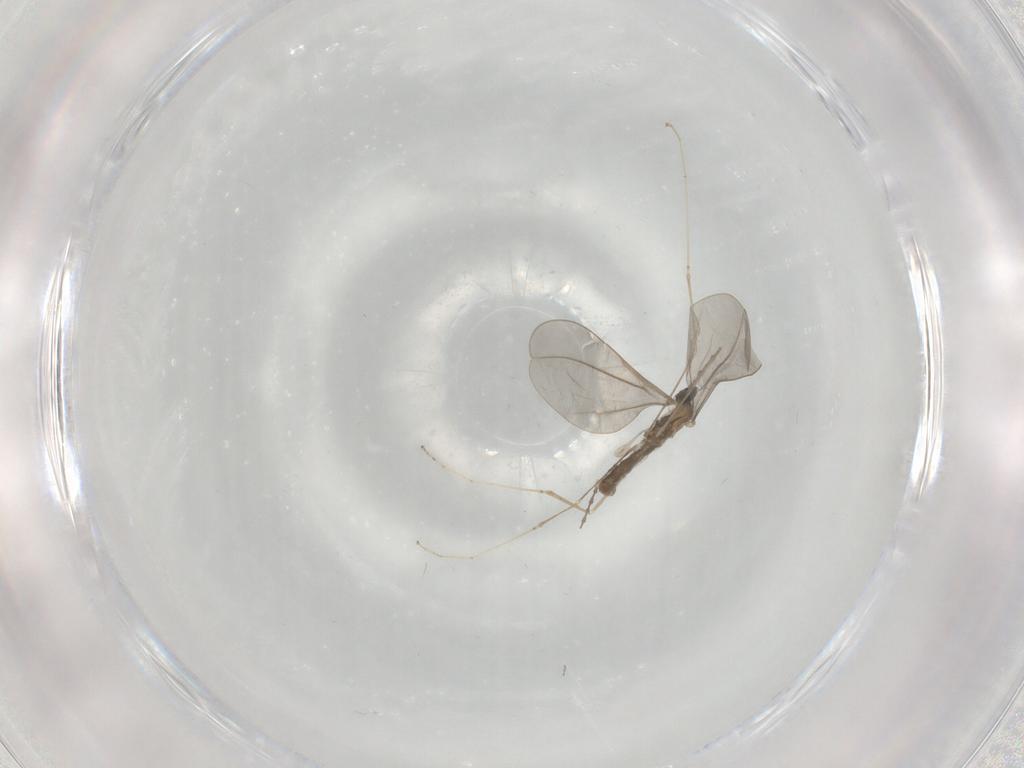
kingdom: Animalia
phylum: Arthropoda
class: Insecta
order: Diptera
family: Cecidomyiidae
